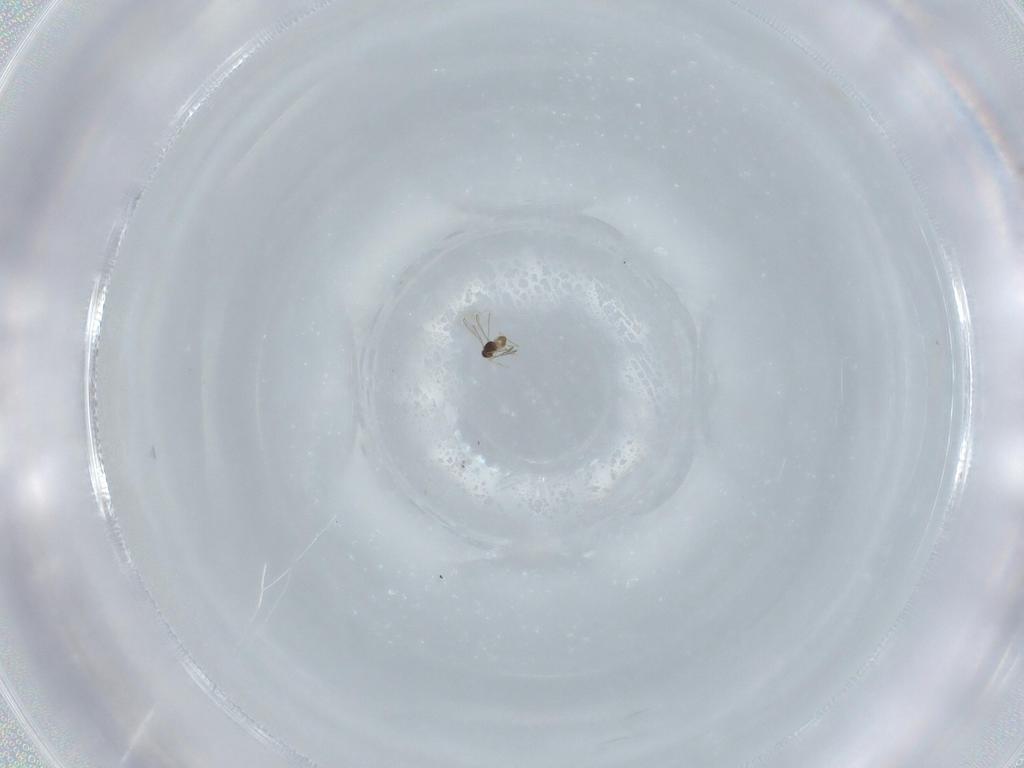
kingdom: Animalia
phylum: Arthropoda
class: Insecta
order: Hymenoptera
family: Mymaridae
